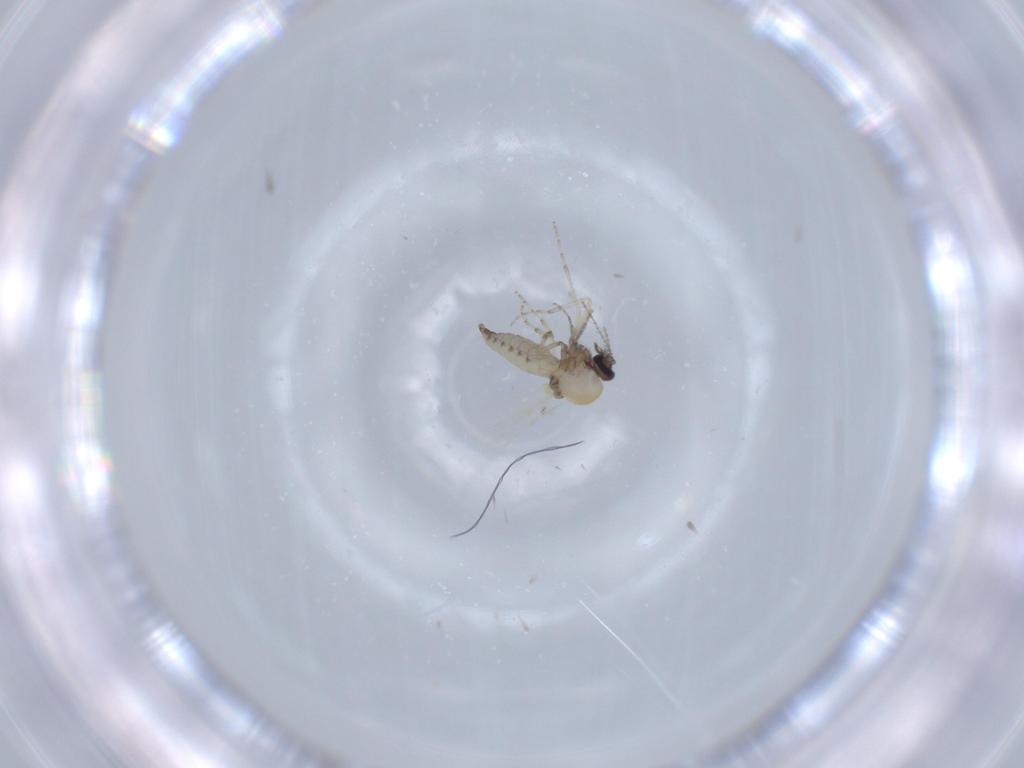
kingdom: Animalia
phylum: Arthropoda
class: Insecta
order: Diptera
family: Ceratopogonidae
